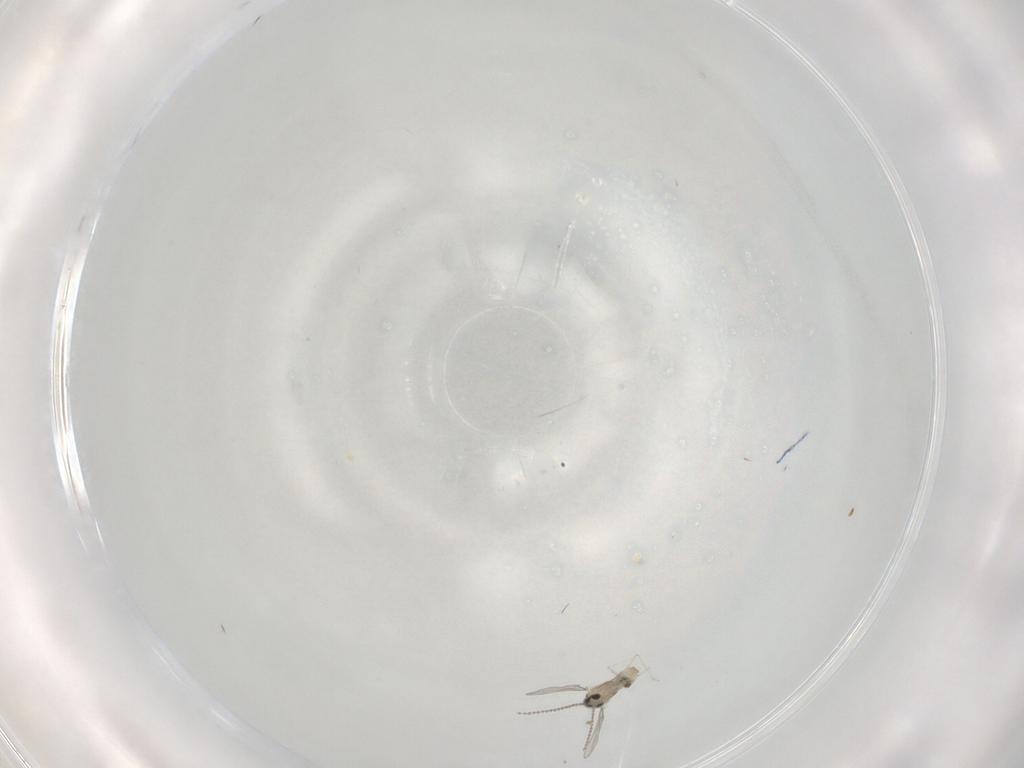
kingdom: Animalia
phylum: Arthropoda
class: Insecta
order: Diptera
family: Cecidomyiidae
